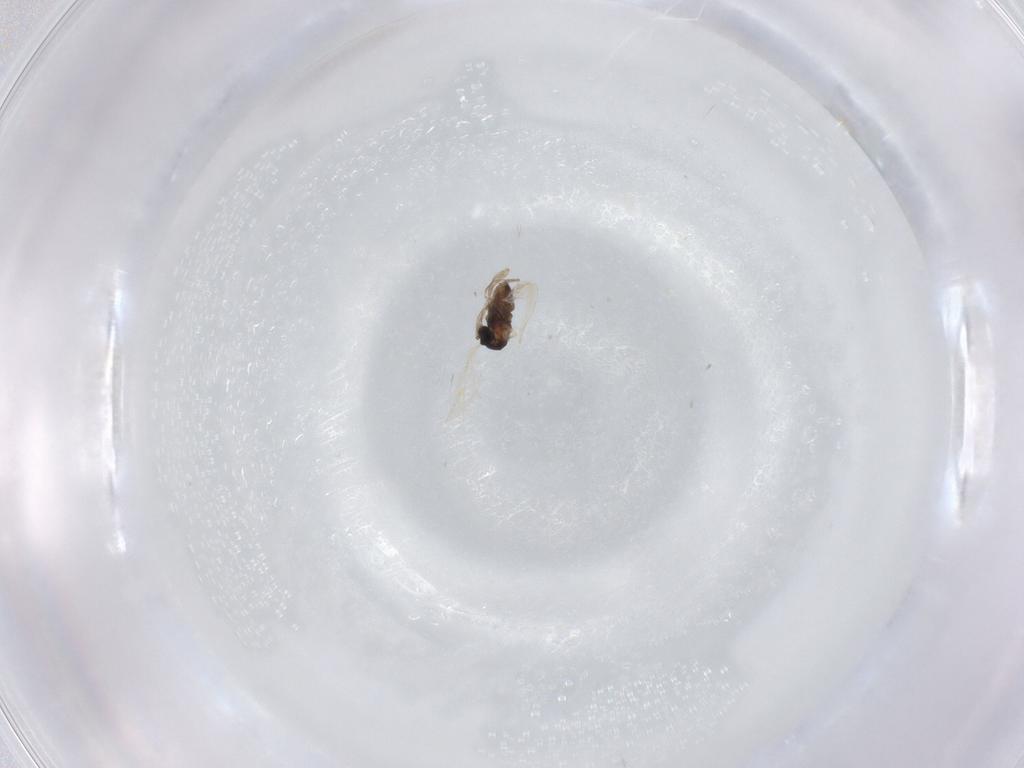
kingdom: Animalia
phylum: Arthropoda
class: Insecta
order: Diptera
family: Cecidomyiidae
